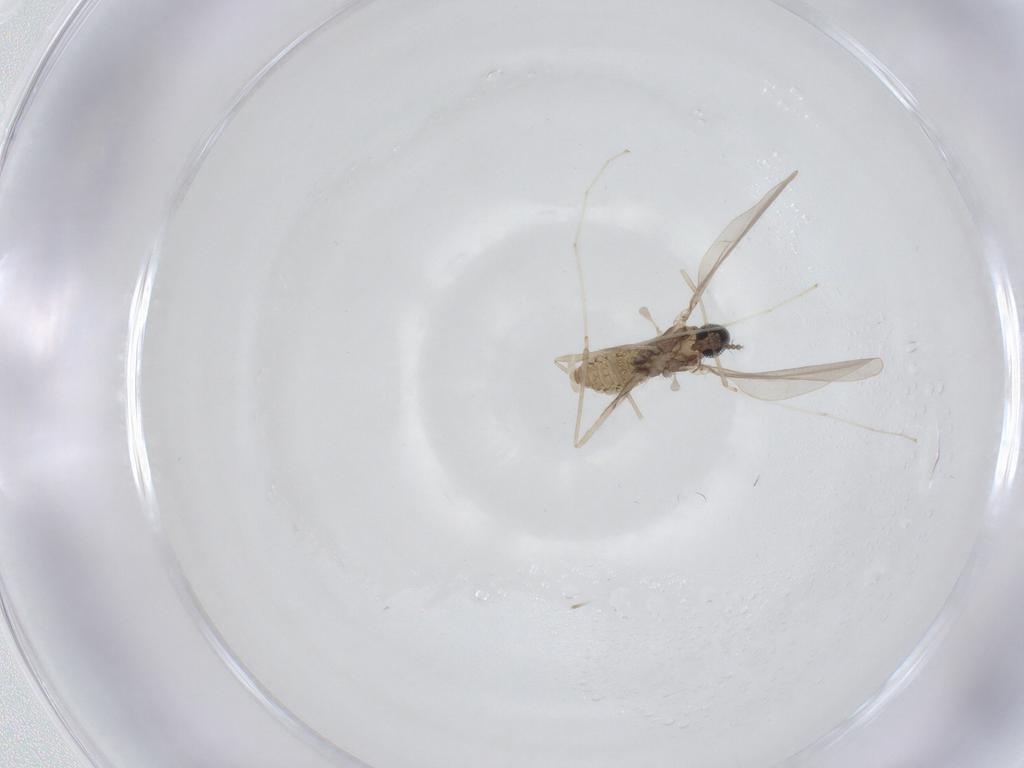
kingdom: Animalia
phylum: Arthropoda
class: Insecta
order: Diptera
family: Cecidomyiidae
